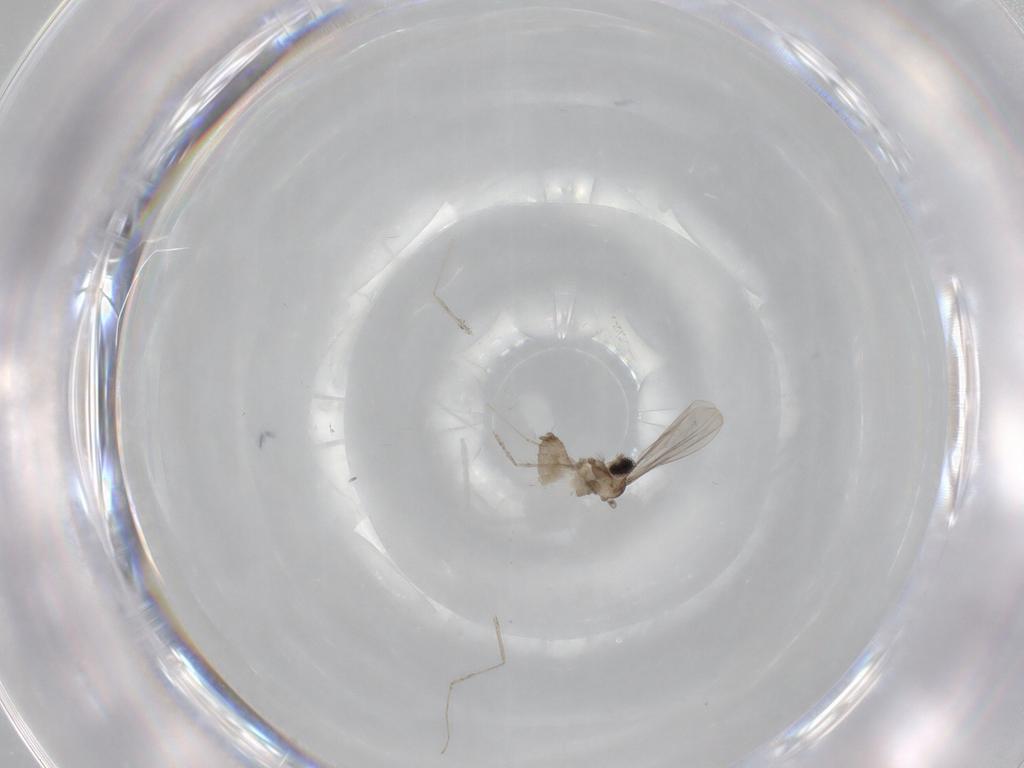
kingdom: Animalia
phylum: Arthropoda
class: Insecta
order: Diptera
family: Cecidomyiidae
